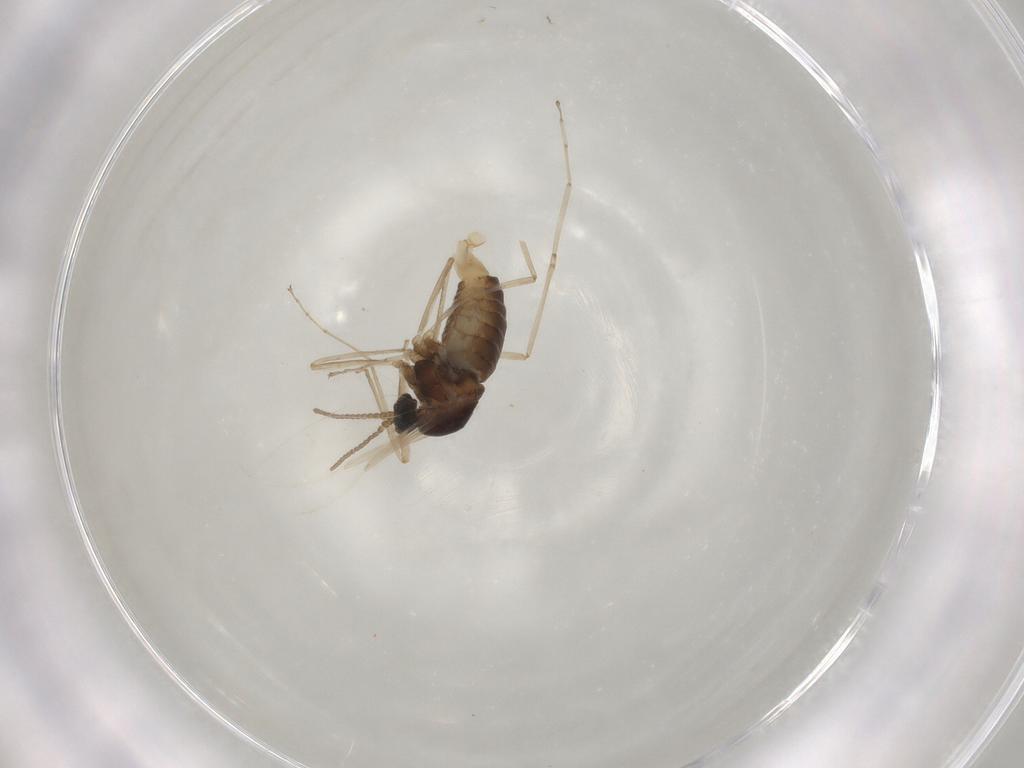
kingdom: Animalia
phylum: Arthropoda
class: Insecta
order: Diptera
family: Cecidomyiidae
